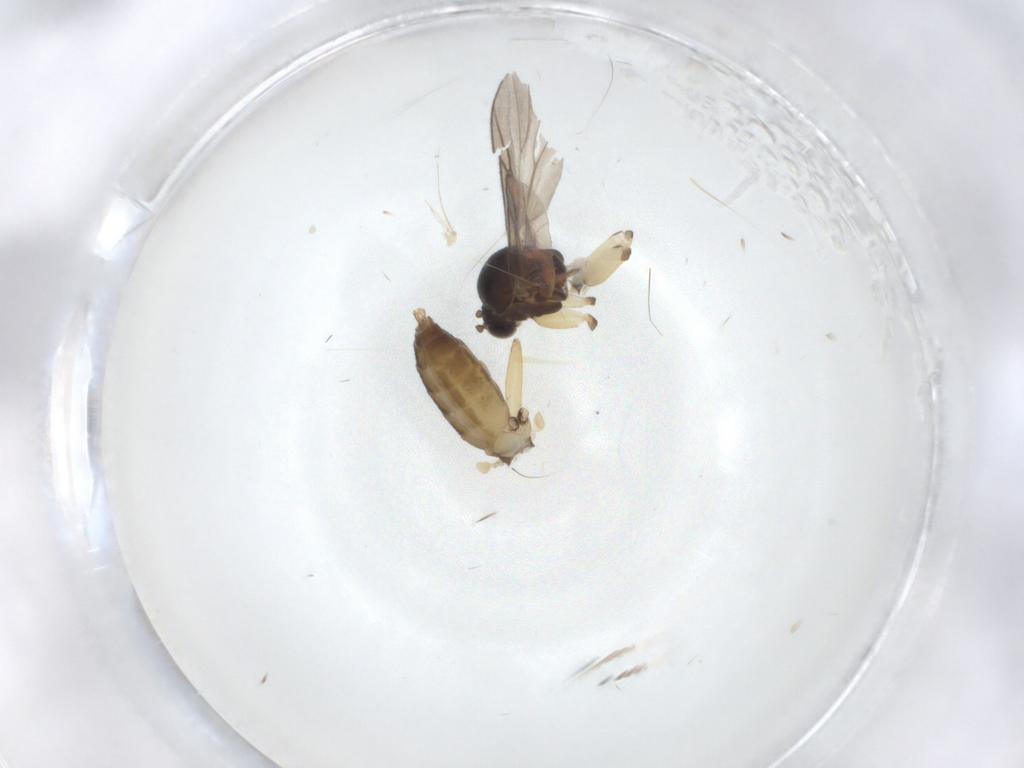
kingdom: Animalia
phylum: Arthropoda
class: Insecta
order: Diptera
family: Mycetophilidae
